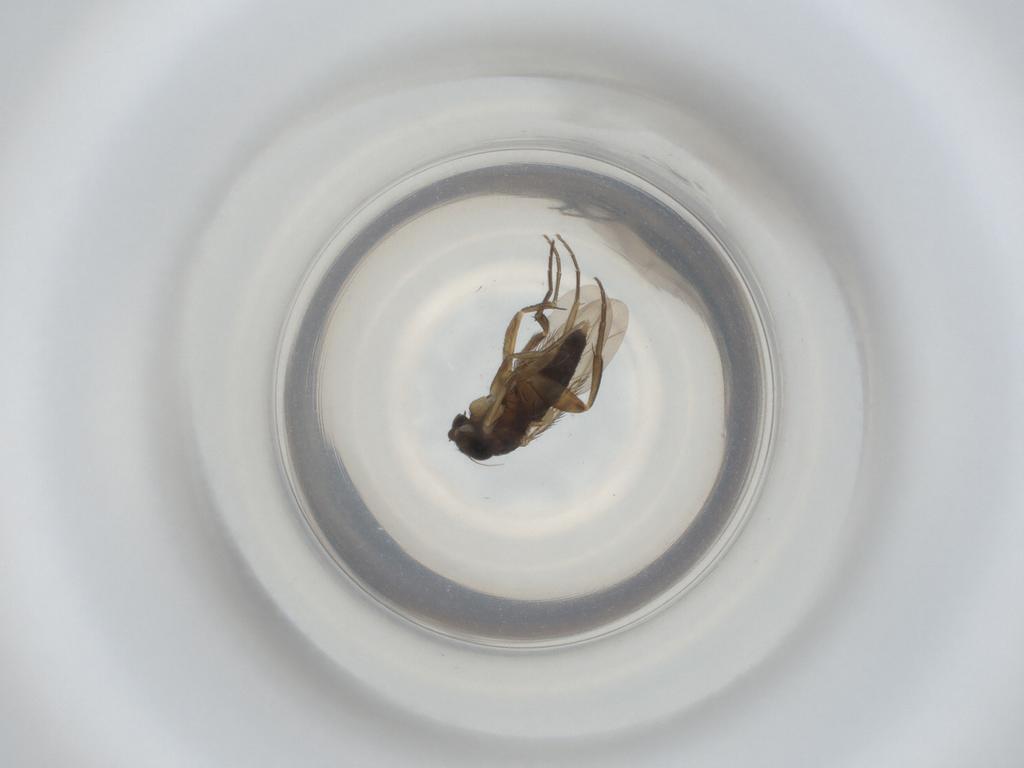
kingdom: Animalia
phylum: Arthropoda
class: Insecta
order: Diptera
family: Phoridae
